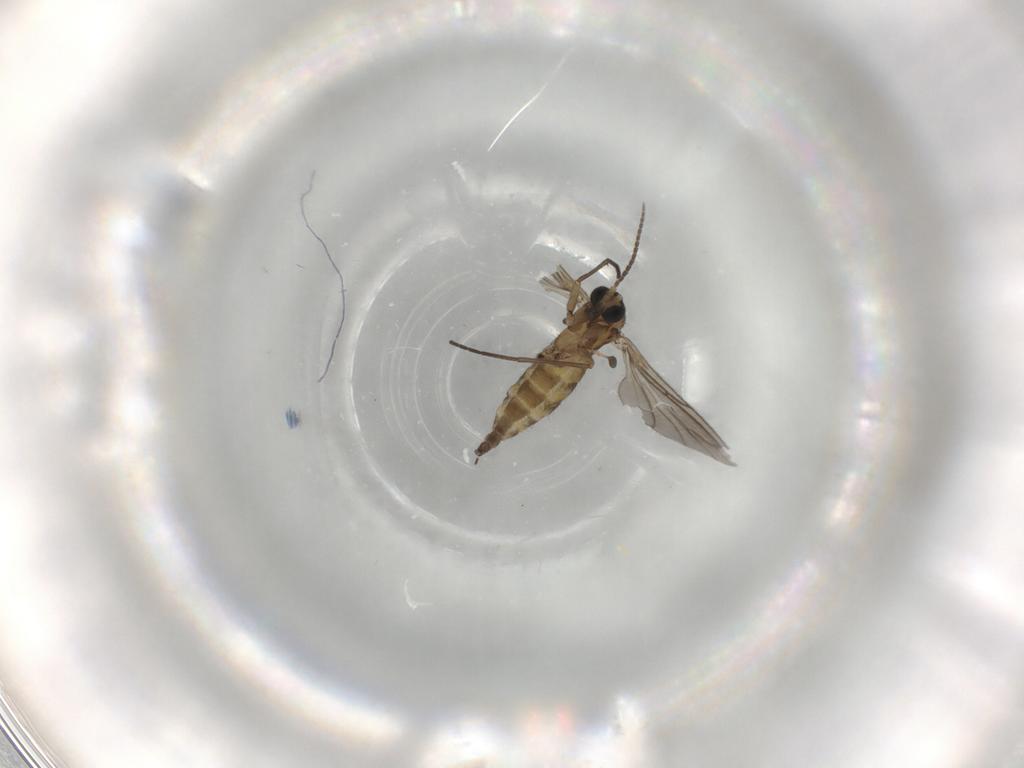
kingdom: Animalia
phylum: Arthropoda
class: Insecta
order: Diptera
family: Sciaridae
